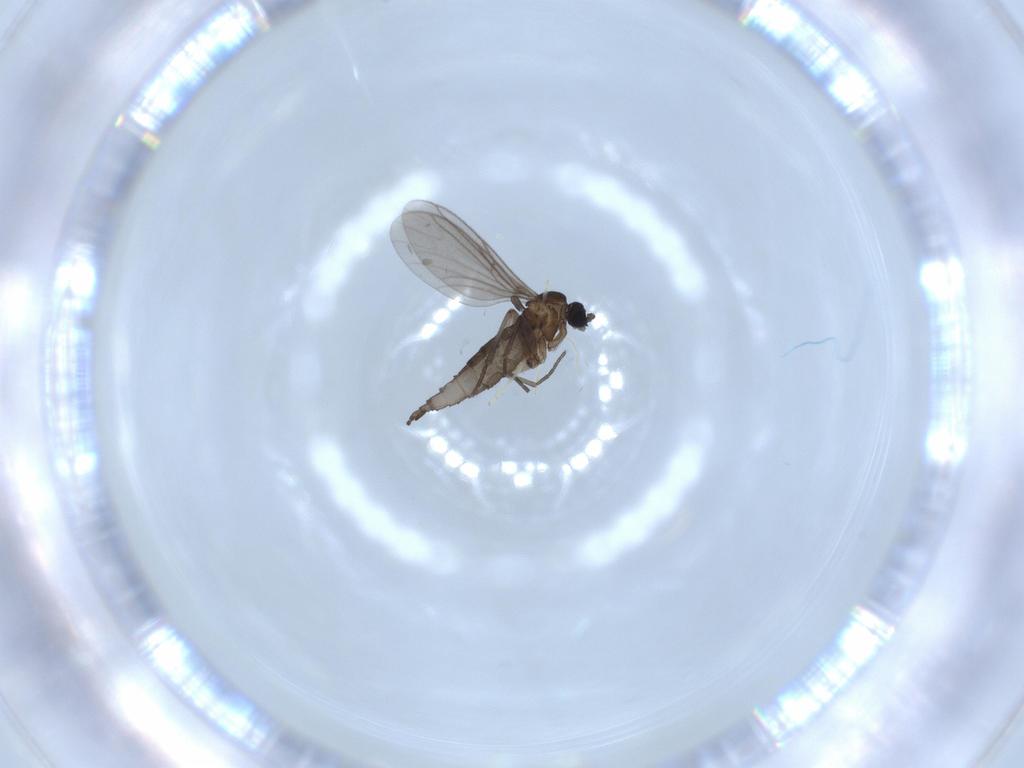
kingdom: Animalia
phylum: Arthropoda
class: Insecta
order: Diptera
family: Chironomidae
